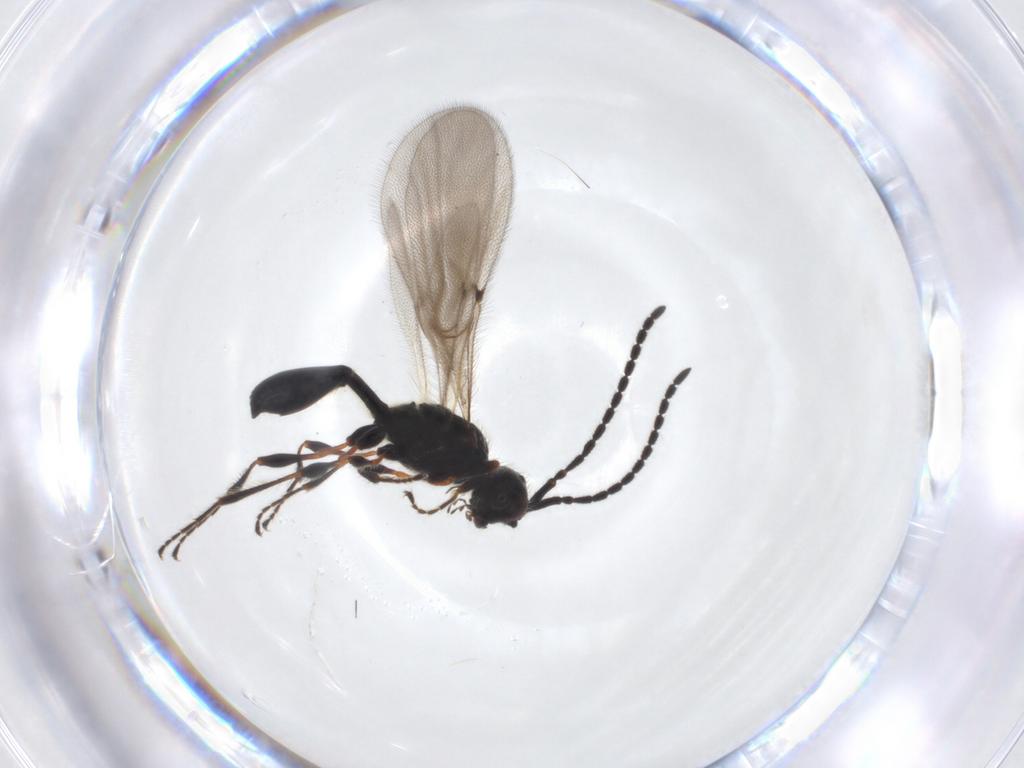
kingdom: Animalia
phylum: Arthropoda
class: Insecta
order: Hymenoptera
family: Diapriidae
